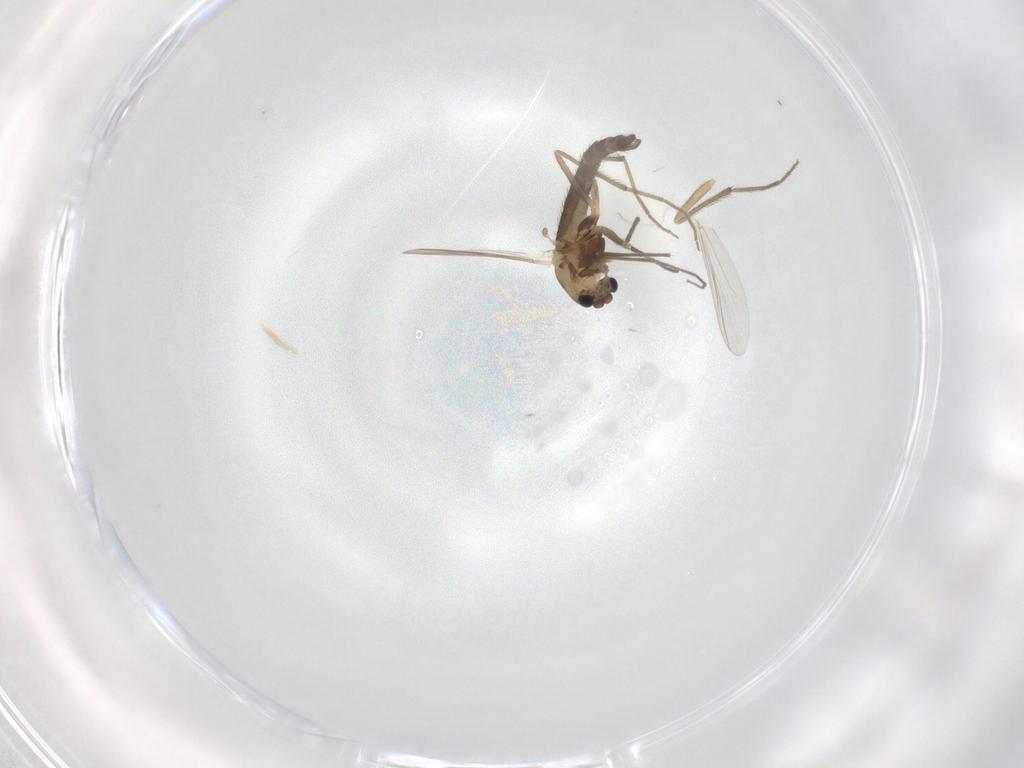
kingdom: Animalia
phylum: Arthropoda
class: Insecta
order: Diptera
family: Chironomidae
